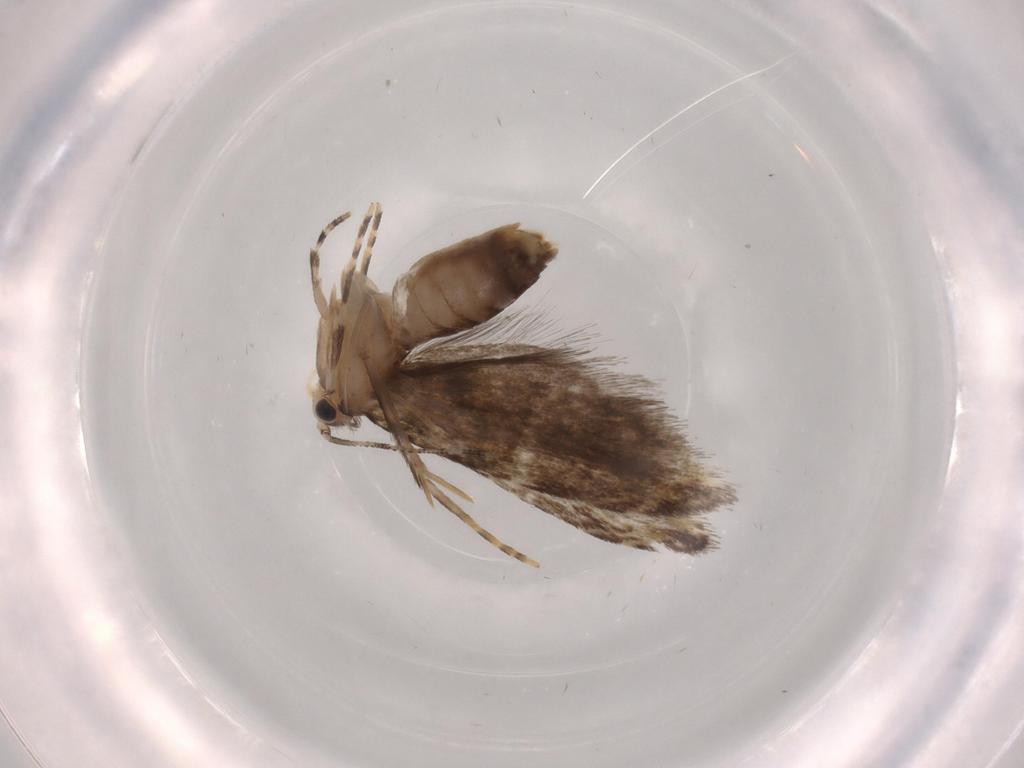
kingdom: Animalia
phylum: Arthropoda
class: Insecta
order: Lepidoptera
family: Tineidae
